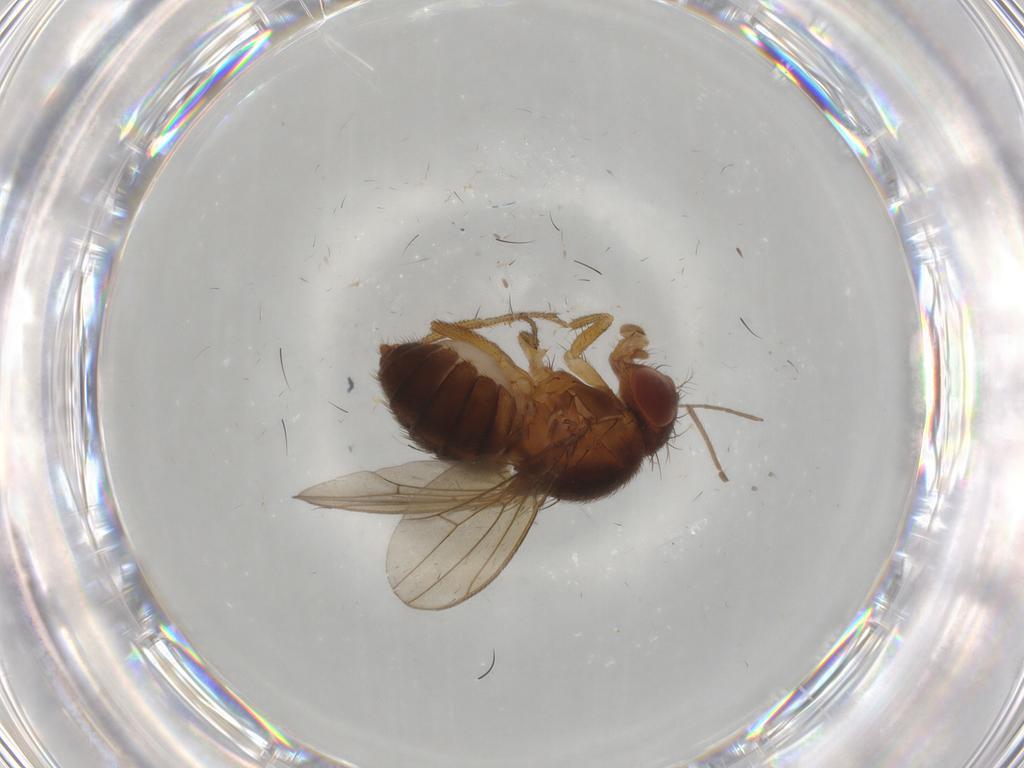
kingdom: Animalia
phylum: Arthropoda
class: Insecta
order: Diptera
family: Drosophilidae
